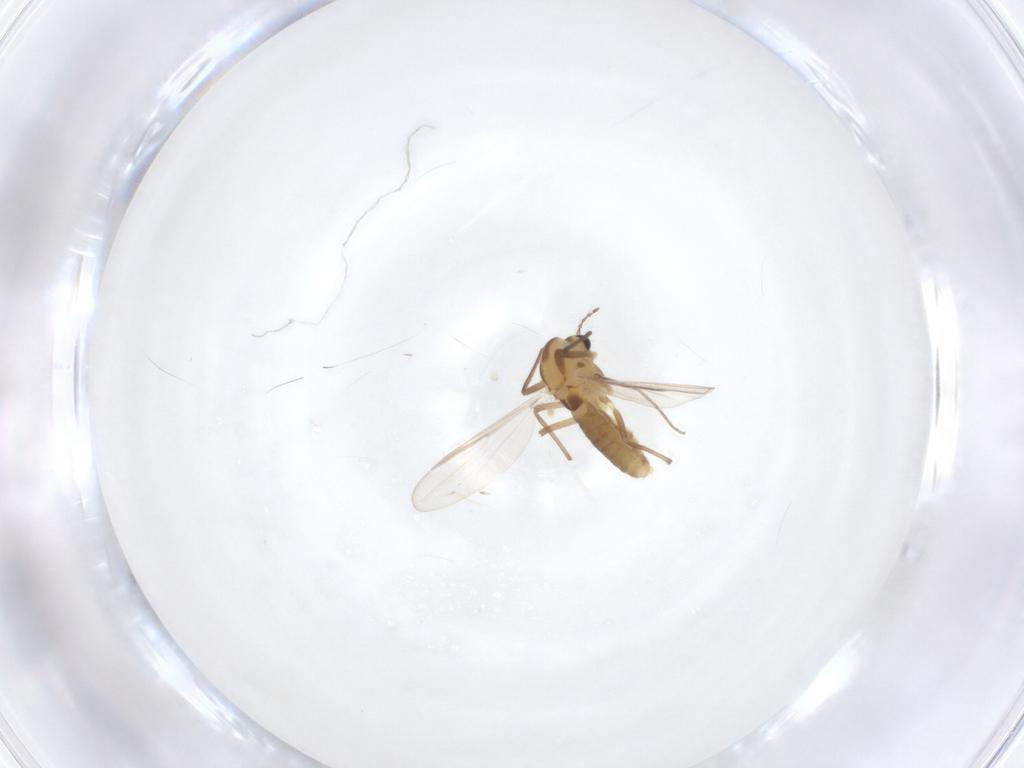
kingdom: Animalia
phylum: Arthropoda
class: Insecta
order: Diptera
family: Chironomidae
